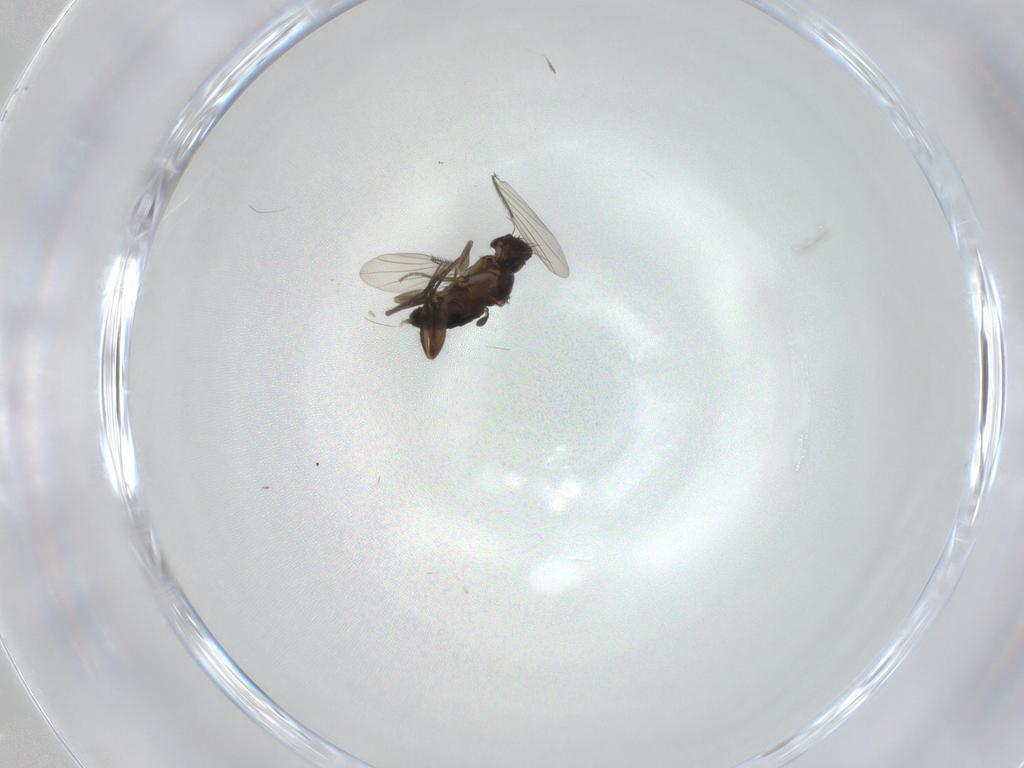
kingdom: Animalia
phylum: Arthropoda
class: Insecta
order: Diptera
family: Phoridae
